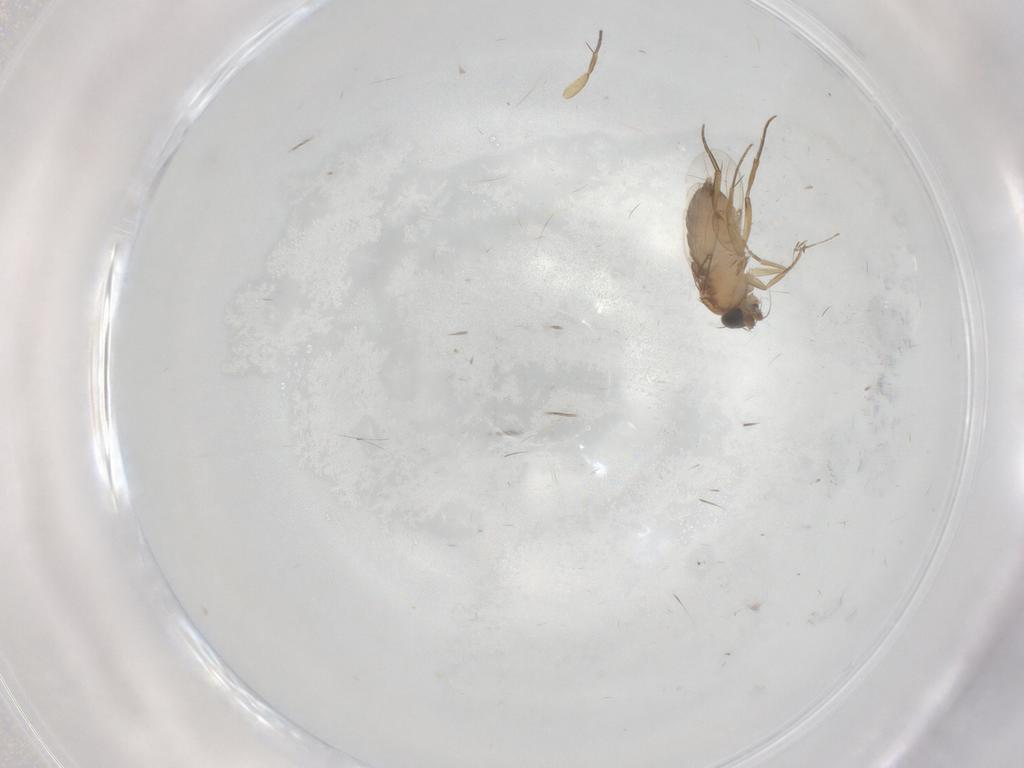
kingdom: Animalia
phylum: Arthropoda
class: Insecta
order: Diptera
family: Phoridae
